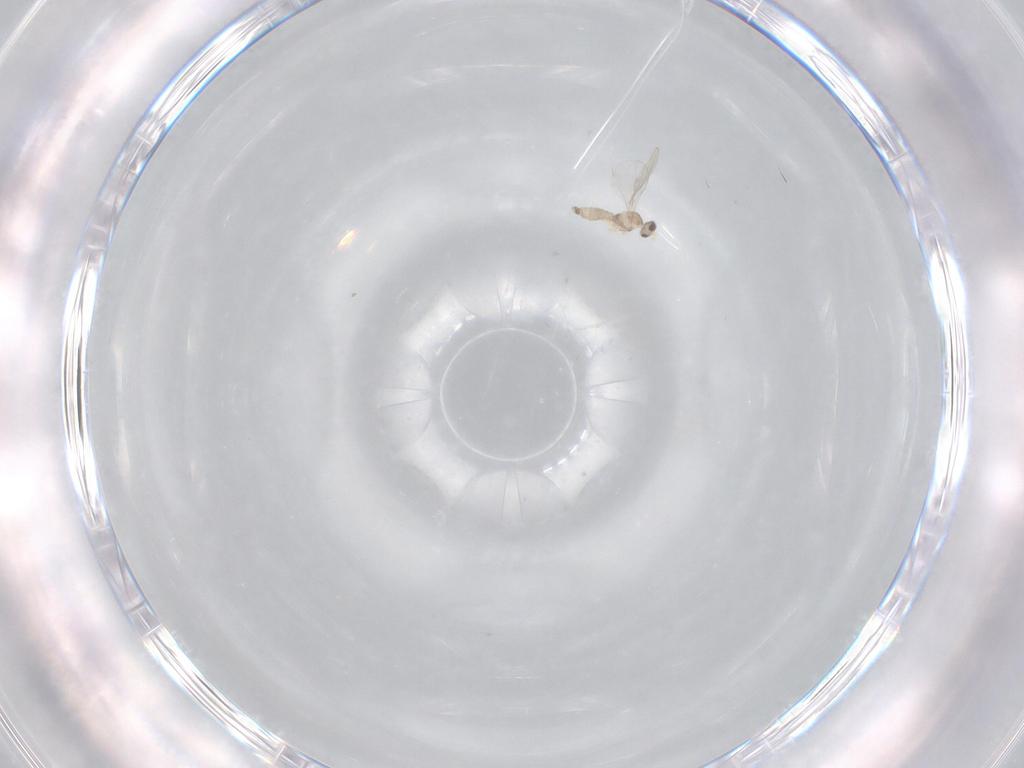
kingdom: Animalia
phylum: Arthropoda
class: Insecta
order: Diptera
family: Cecidomyiidae
